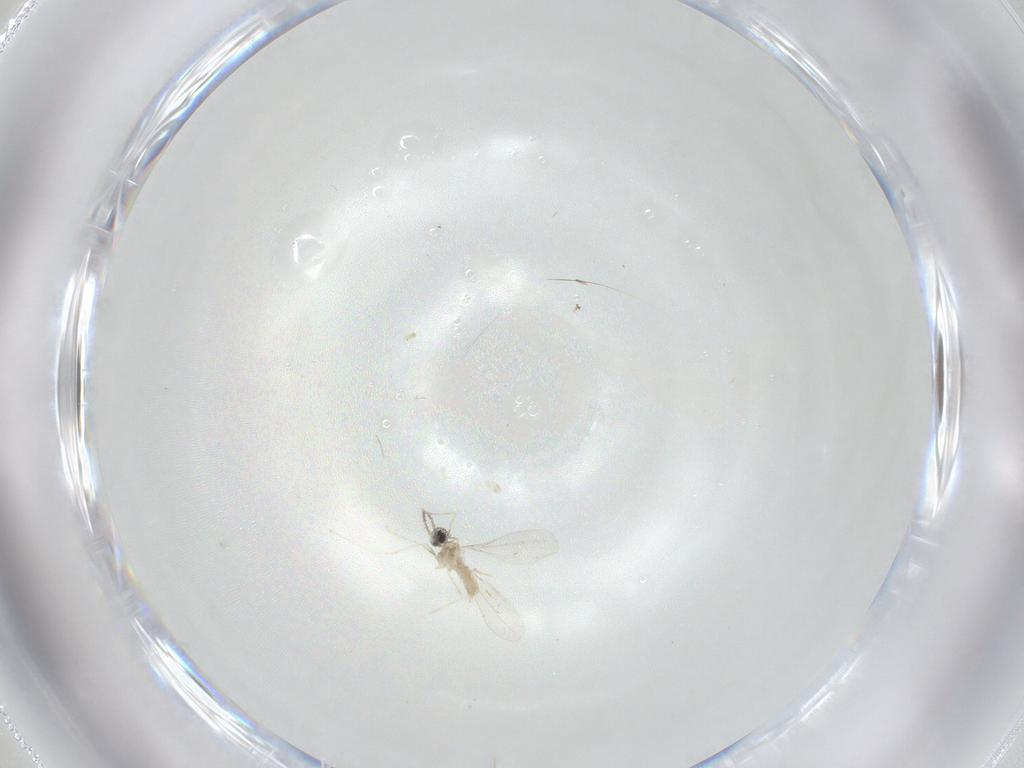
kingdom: Animalia
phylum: Arthropoda
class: Insecta
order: Diptera
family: Cecidomyiidae
